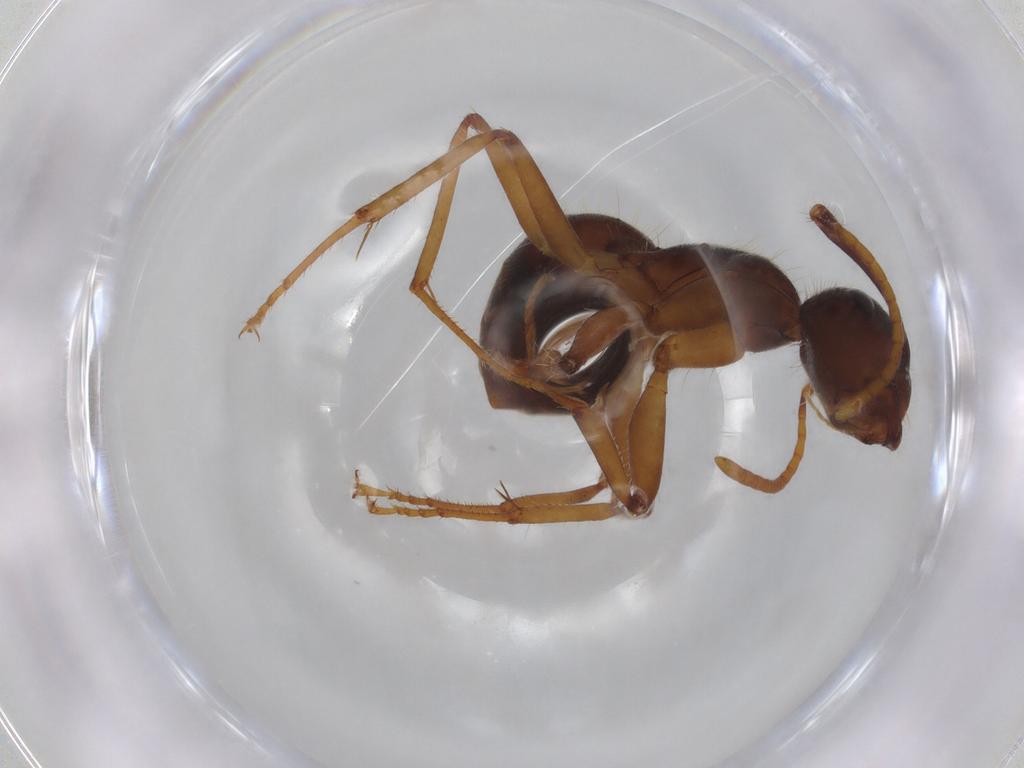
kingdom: Animalia
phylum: Arthropoda
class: Insecta
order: Hymenoptera
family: Formicidae
